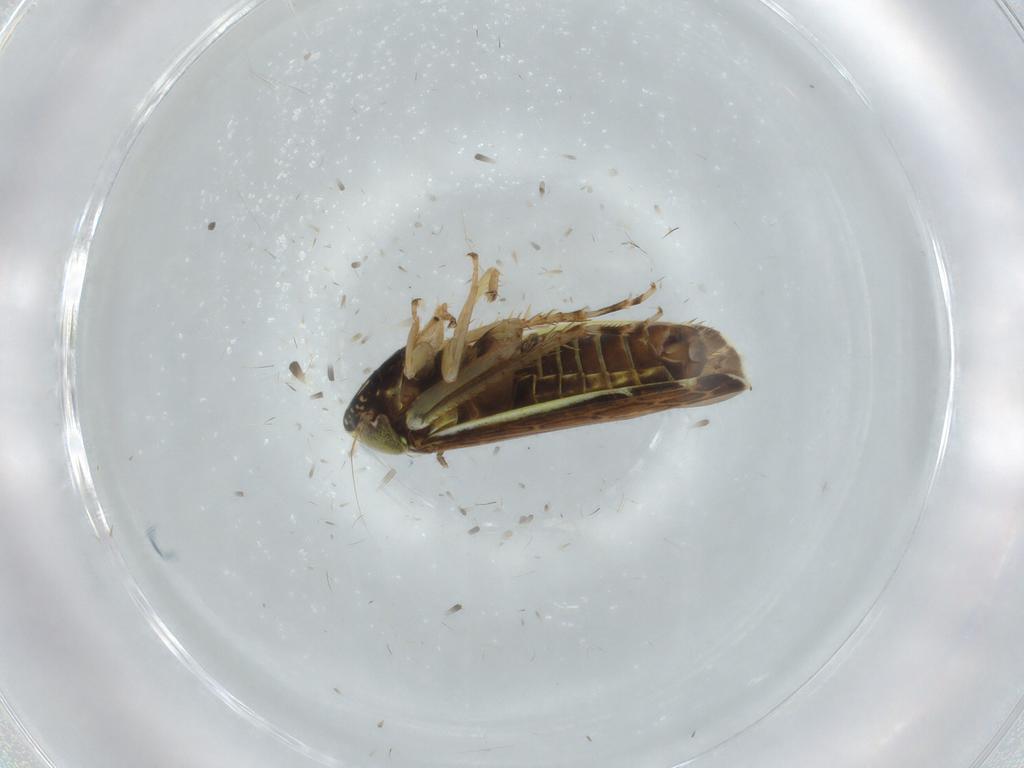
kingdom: Animalia
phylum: Arthropoda
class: Insecta
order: Hemiptera
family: Cicadellidae
